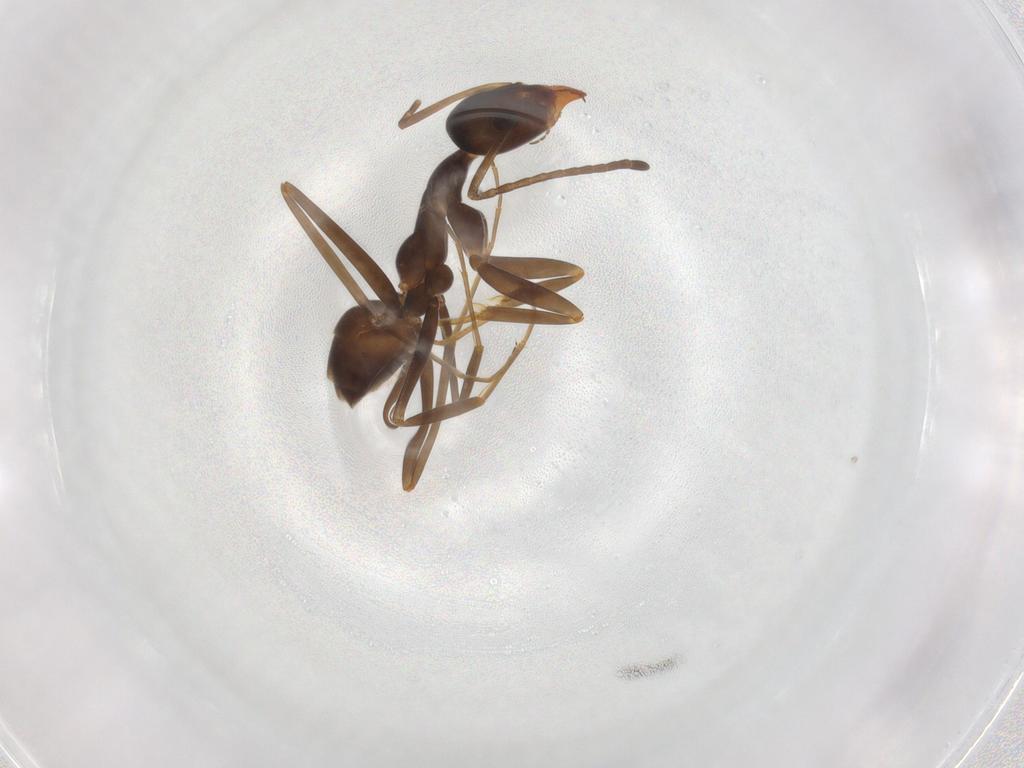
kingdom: Animalia
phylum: Arthropoda
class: Insecta
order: Hymenoptera
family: Formicidae
